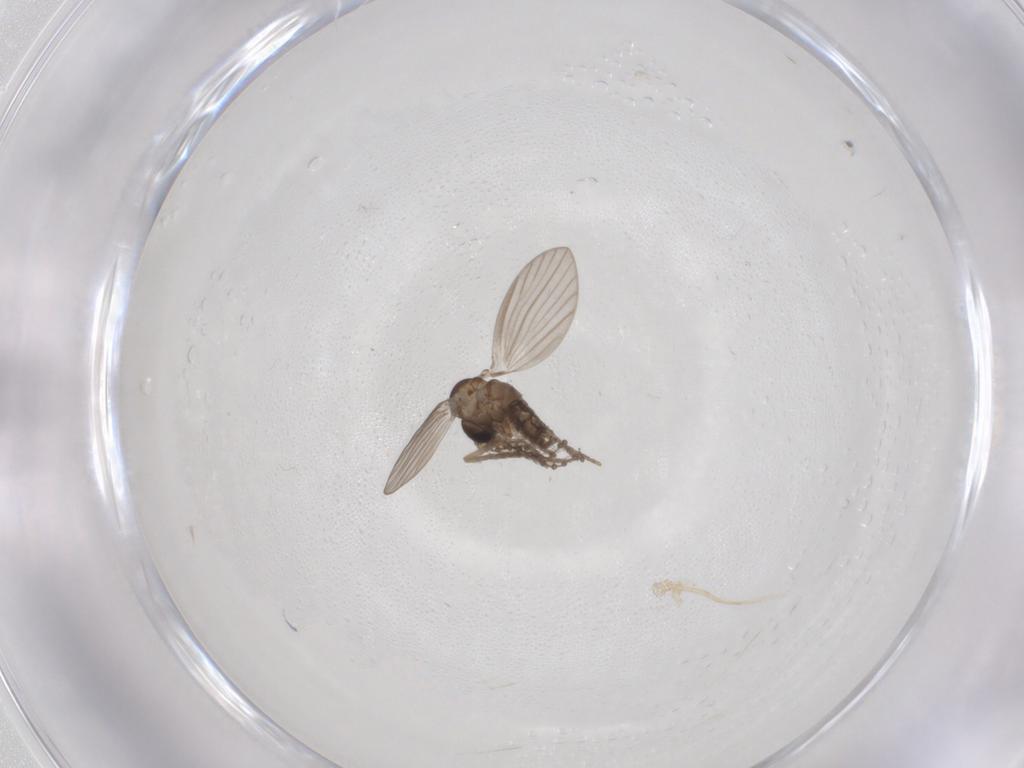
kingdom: Animalia
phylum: Arthropoda
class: Insecta
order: Diptera
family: Psychodidae
